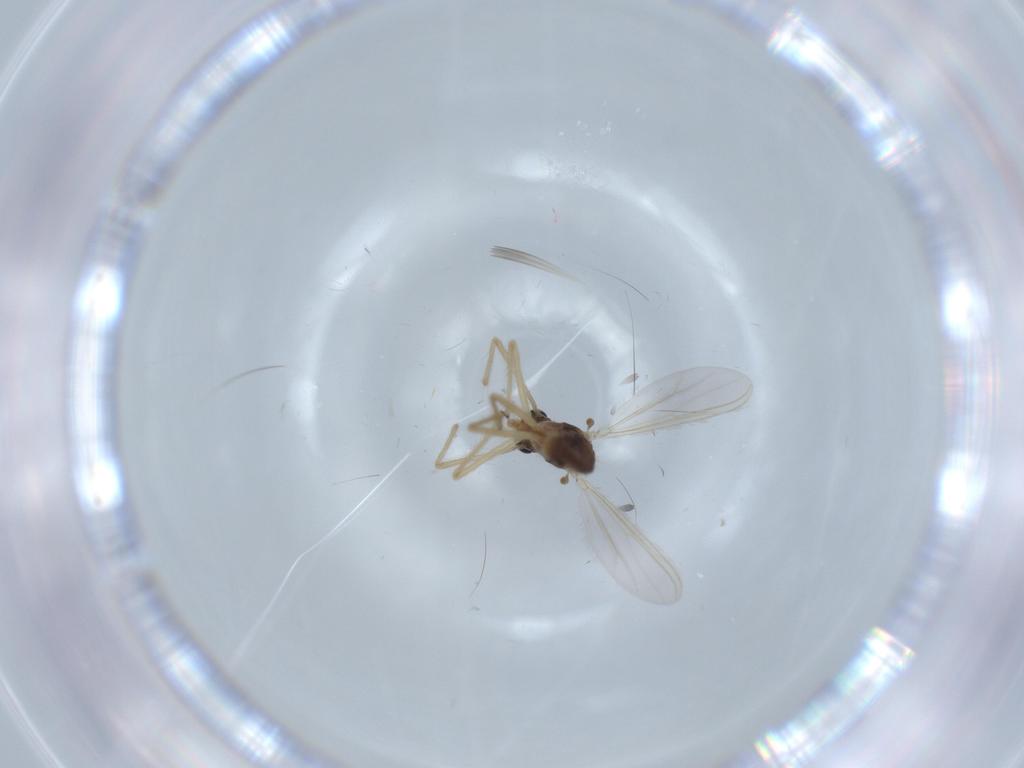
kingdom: Animalia
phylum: Arthropoda
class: Insecta
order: Diptera
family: Chironomidae
